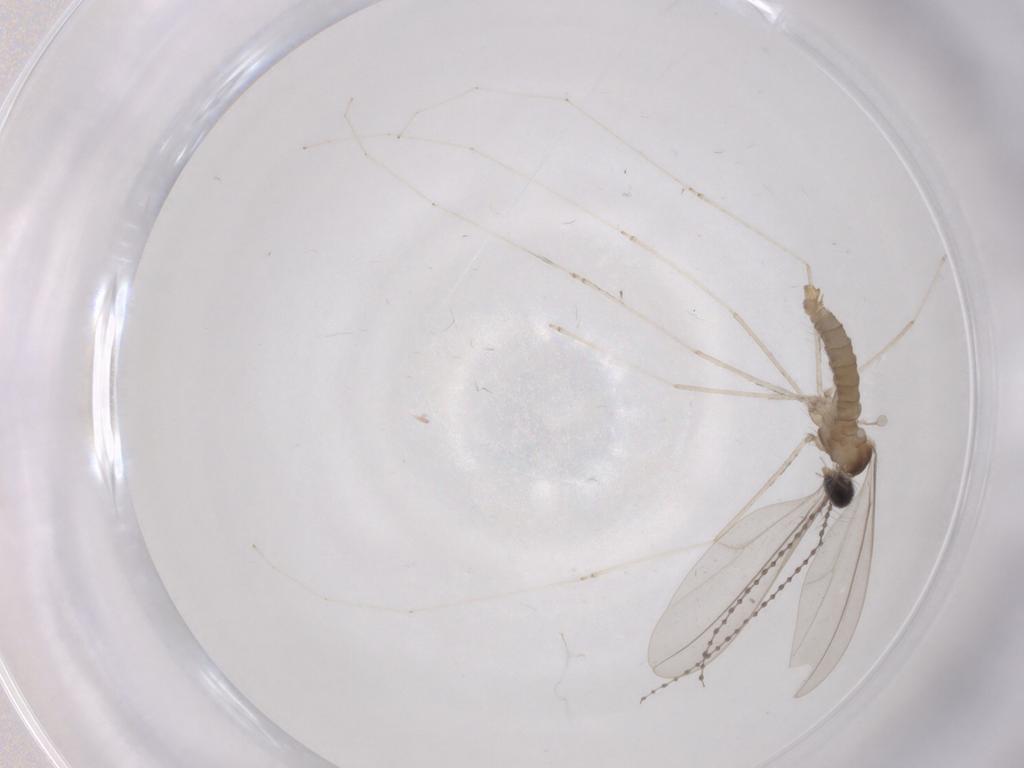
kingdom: Animalia
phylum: Arthropoda
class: Insecta
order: Diptera
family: Cecidomyiidae
